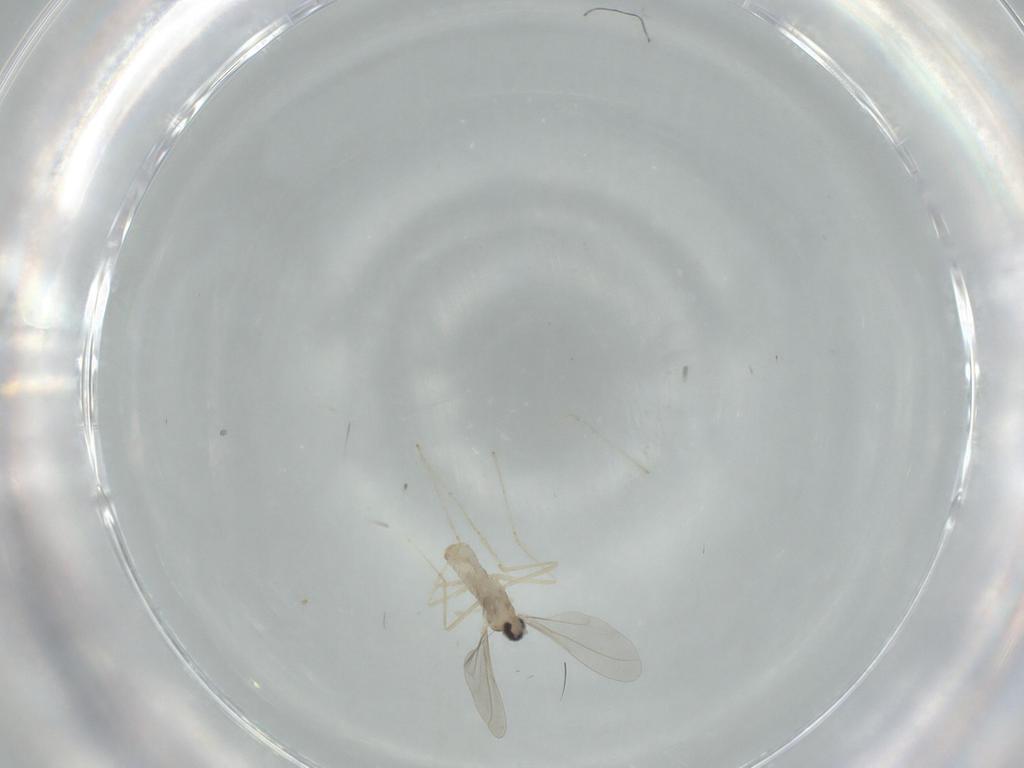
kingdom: Animalia
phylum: Arthropoda
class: Insecta
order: Diptera
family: Cecidomyiidae
